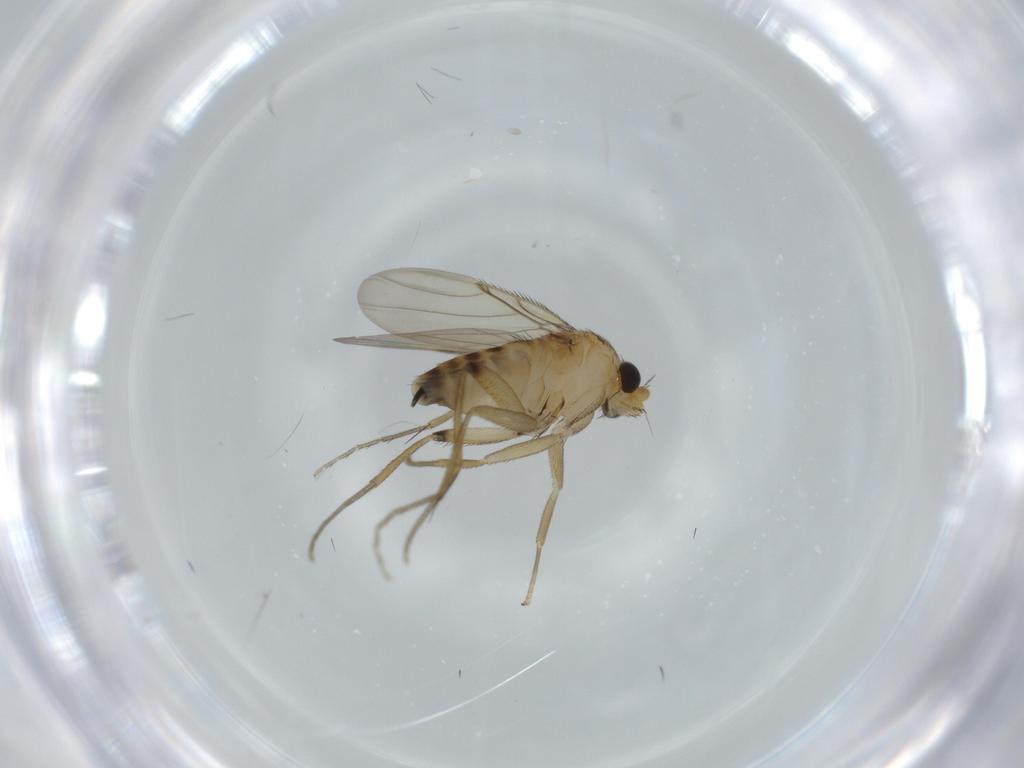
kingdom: Animalia
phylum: Arthropoda
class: Insecta
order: Diptera
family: Phoridae
